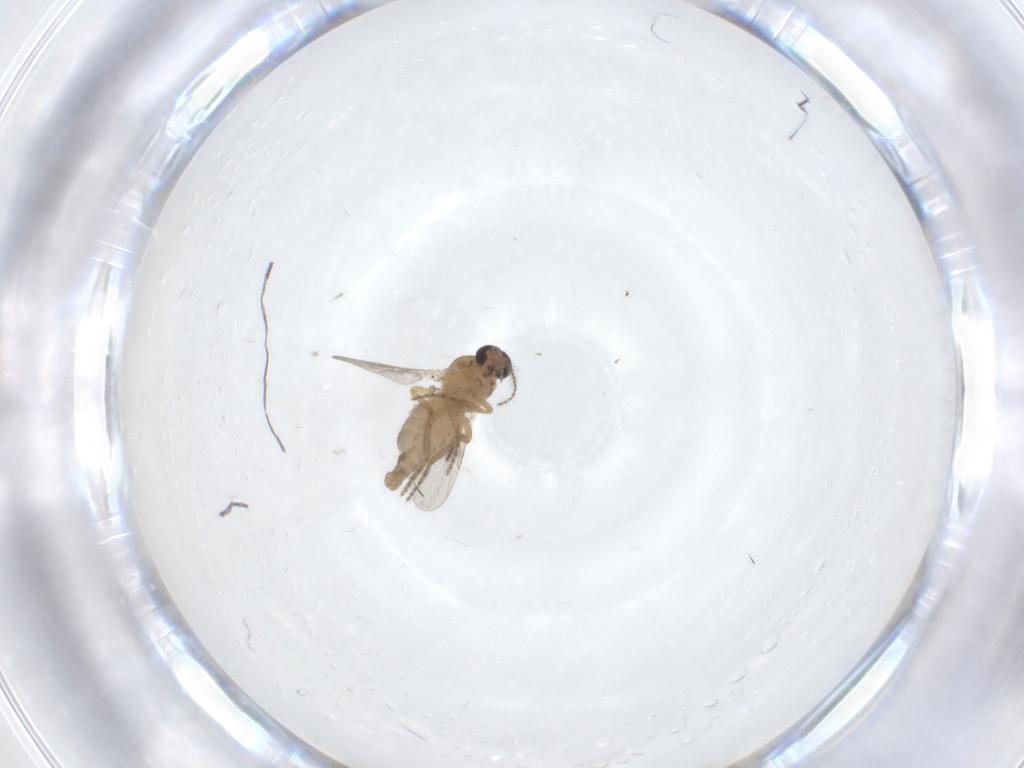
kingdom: Animalia
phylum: Arthropoda
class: Insecta
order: Diptera
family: Ceratopogonidae
